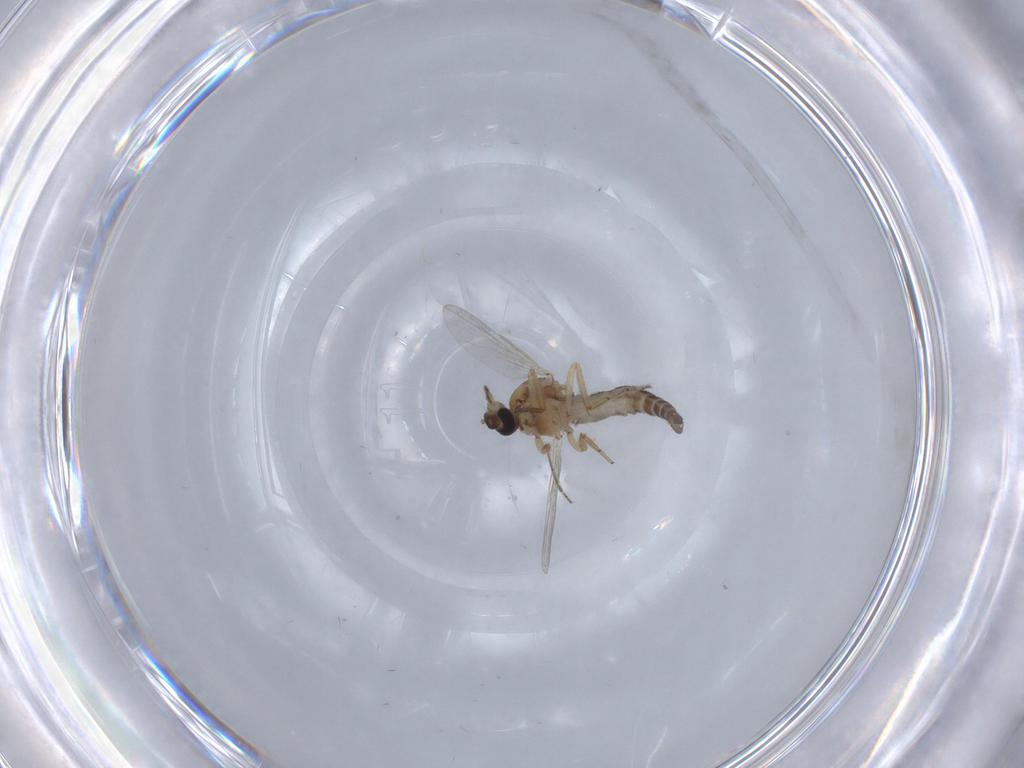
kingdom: Animalia
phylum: Arthropoda
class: Insecta
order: Diptera
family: Ceratopogonidae
